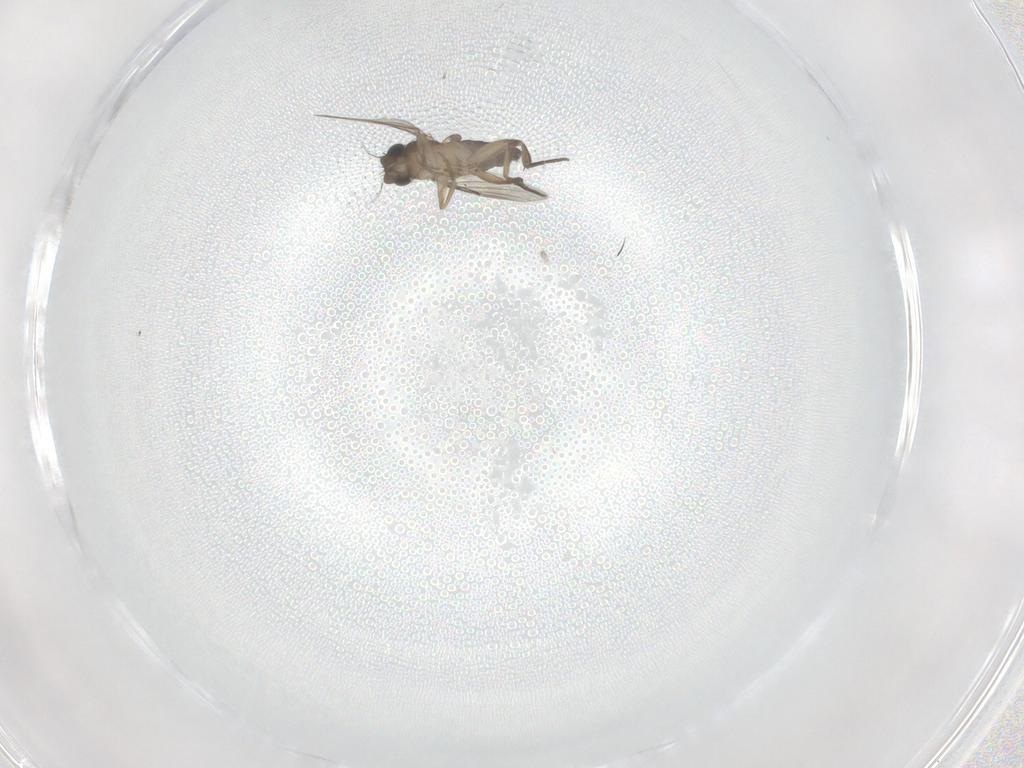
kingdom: Animalia
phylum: Arthropoda
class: Insecta
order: Diptera
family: Phoridae
